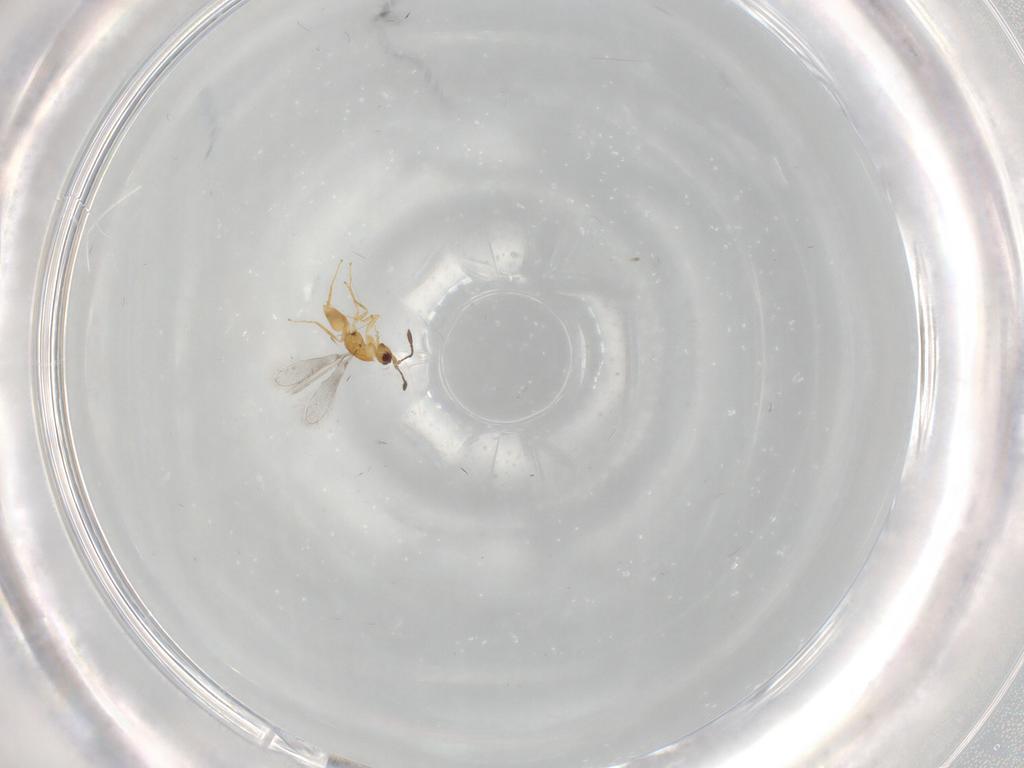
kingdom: Animalia
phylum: Arthropoda
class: Insecta
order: Hymenoptera
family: Mymaridae
